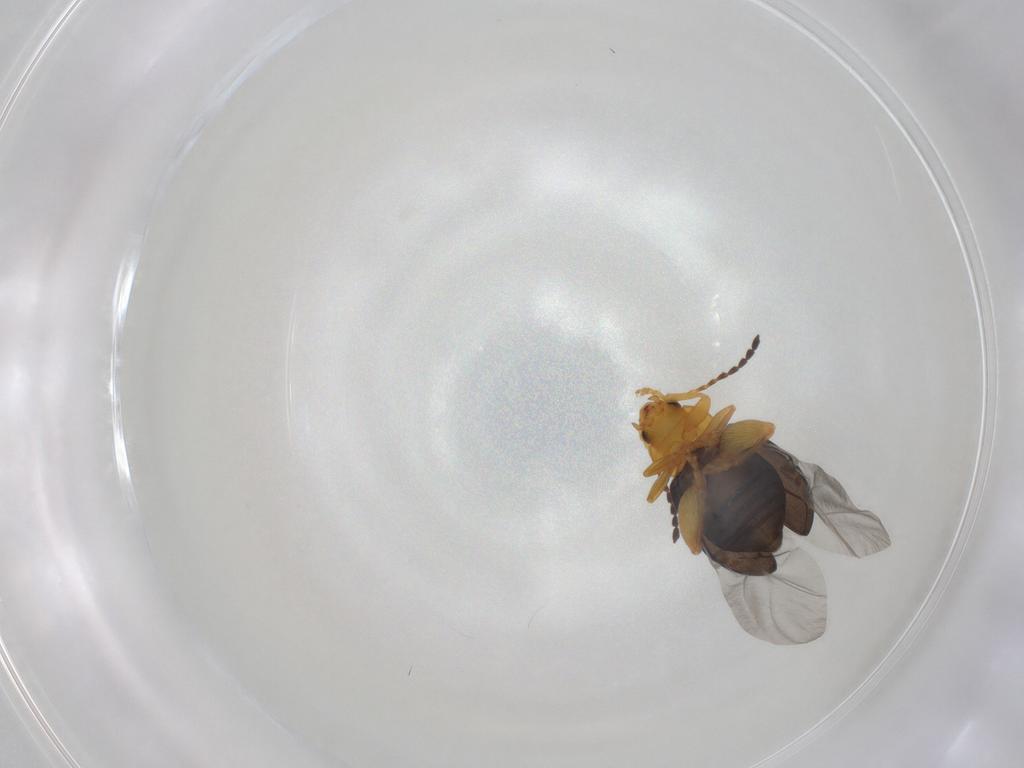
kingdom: Animalia
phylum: Arthropoda
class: Insecta
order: Coleoptera
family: Chrysomelidae
